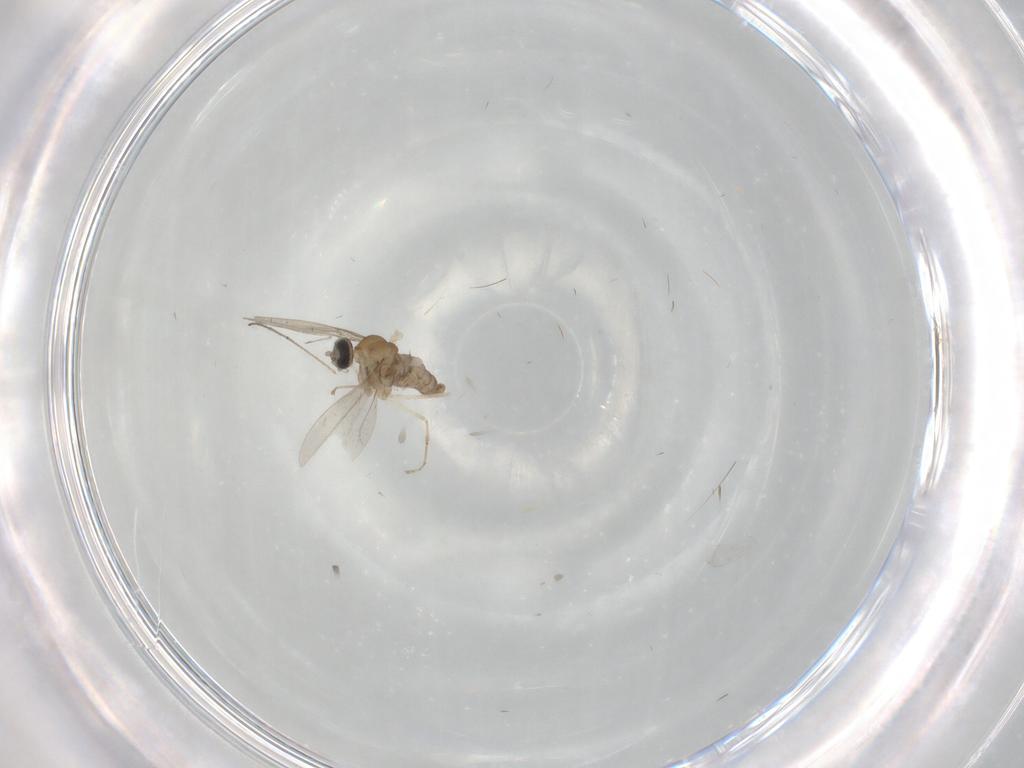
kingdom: Animalia
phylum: Arthropoda
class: Insecta
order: Diptera
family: Cecidomyiidae
